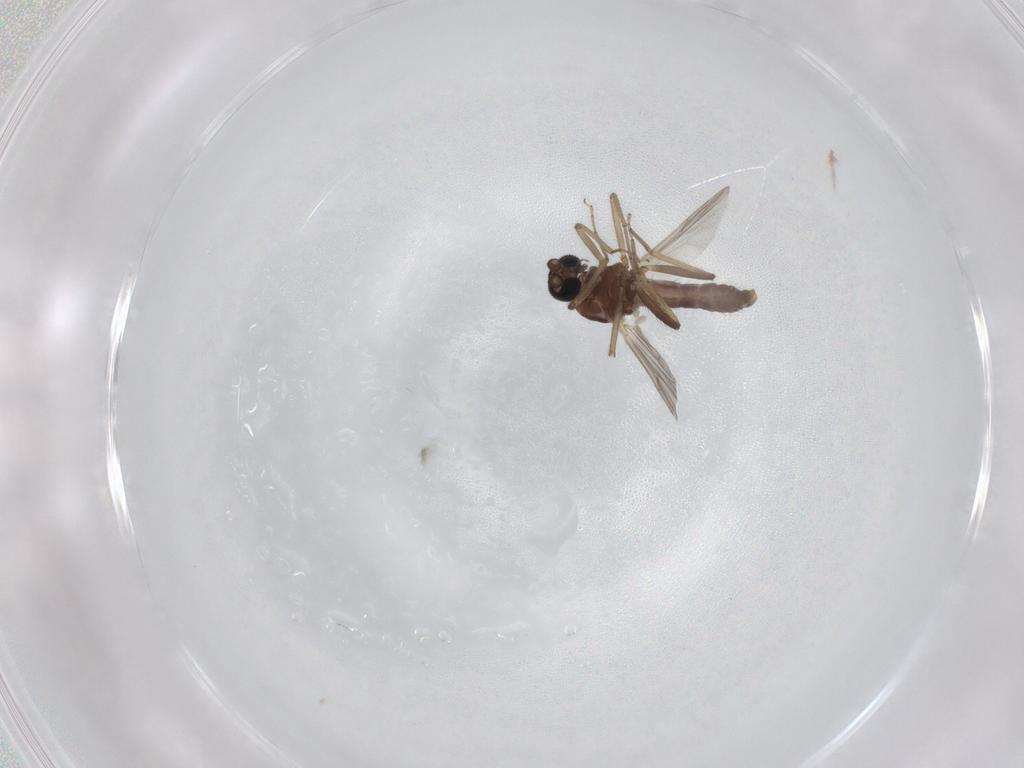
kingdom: Animalia
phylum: Arthropoda
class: Insecta
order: Diptera
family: Ceratopogonidae
